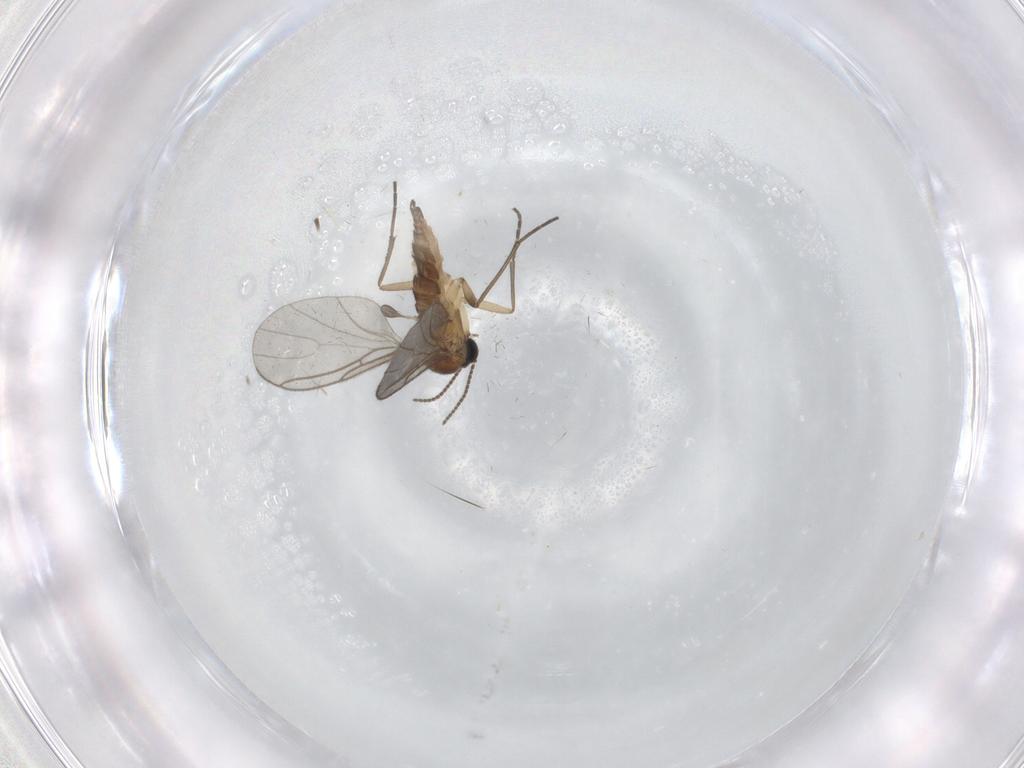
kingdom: Animalia
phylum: Arthropoda
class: Insecta
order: Diptera
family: Sciaridae
